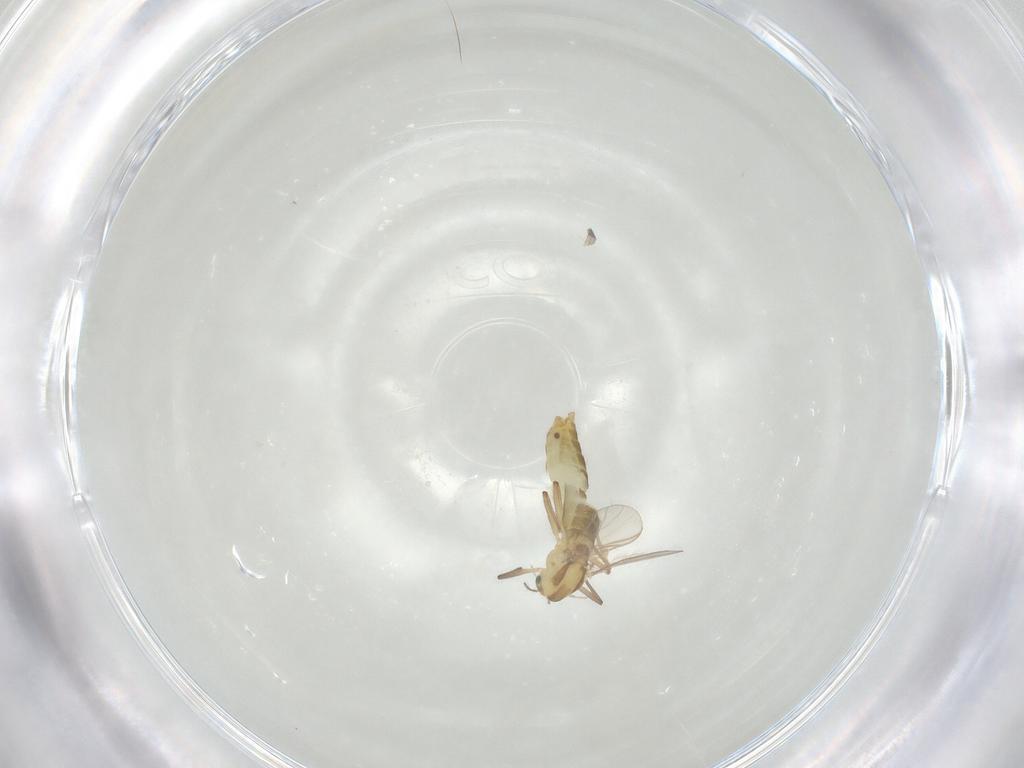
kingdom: Animalia
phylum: Arthropoda
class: Insecta
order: Diptera
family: Chironomidae
